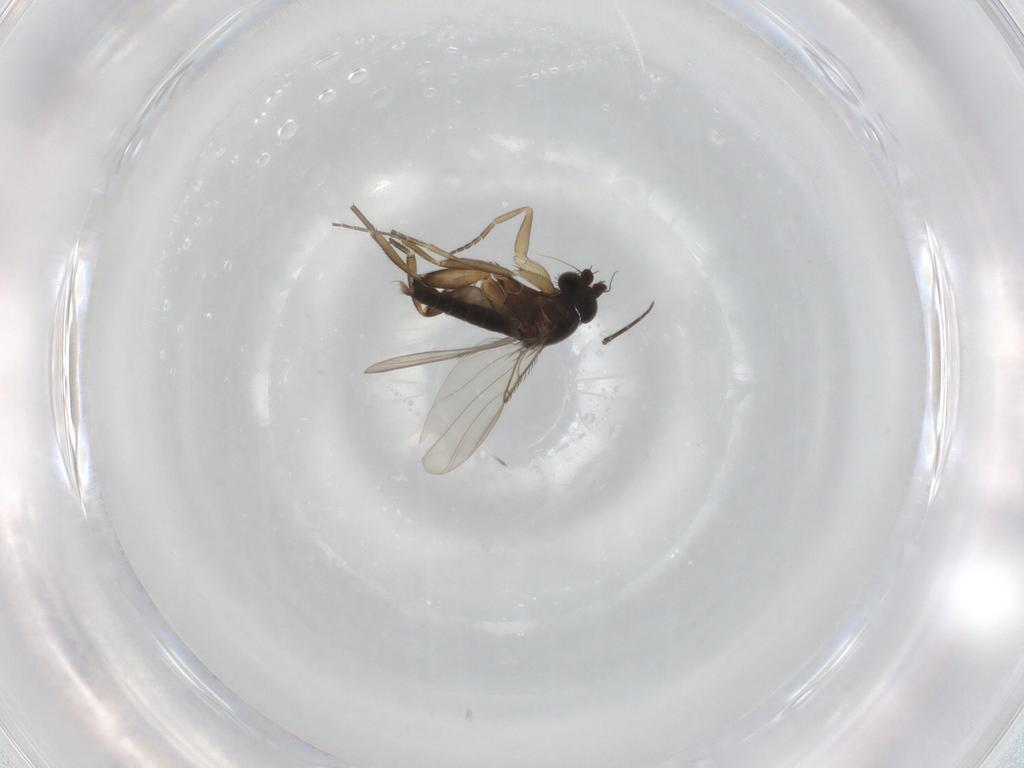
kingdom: Animalia
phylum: Arthropoda
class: Insecta
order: Diptera
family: Phoridae
